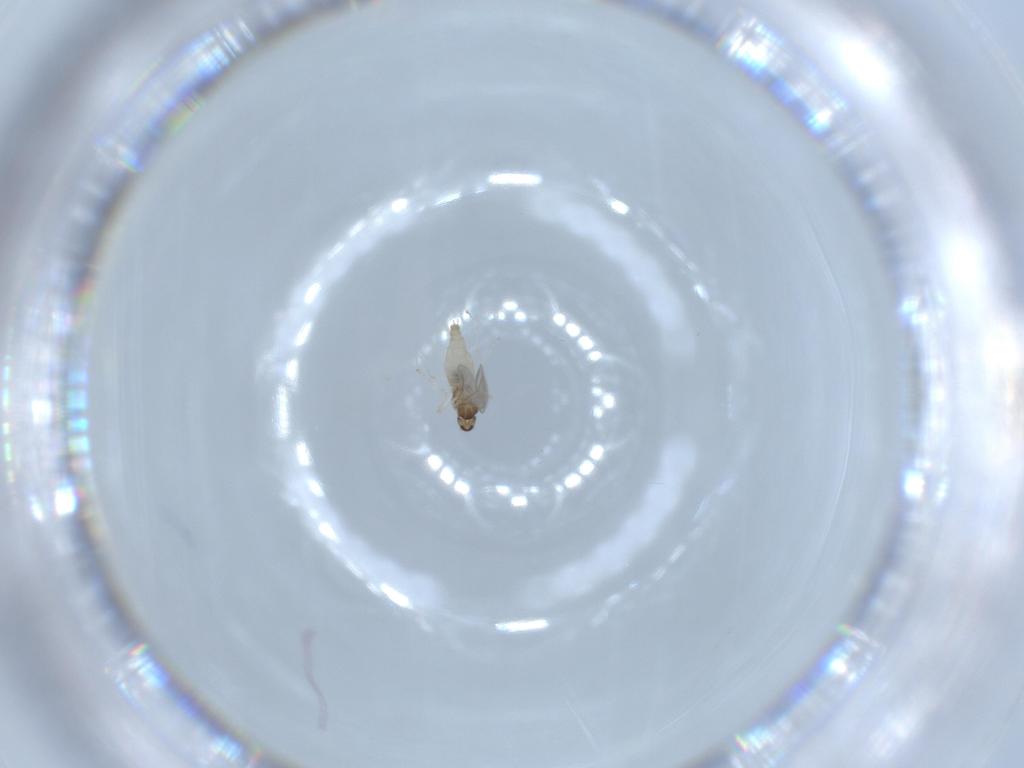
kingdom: Animalia
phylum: Arthropoda
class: Insecta
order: Diptera
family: Cecidomyiidae
